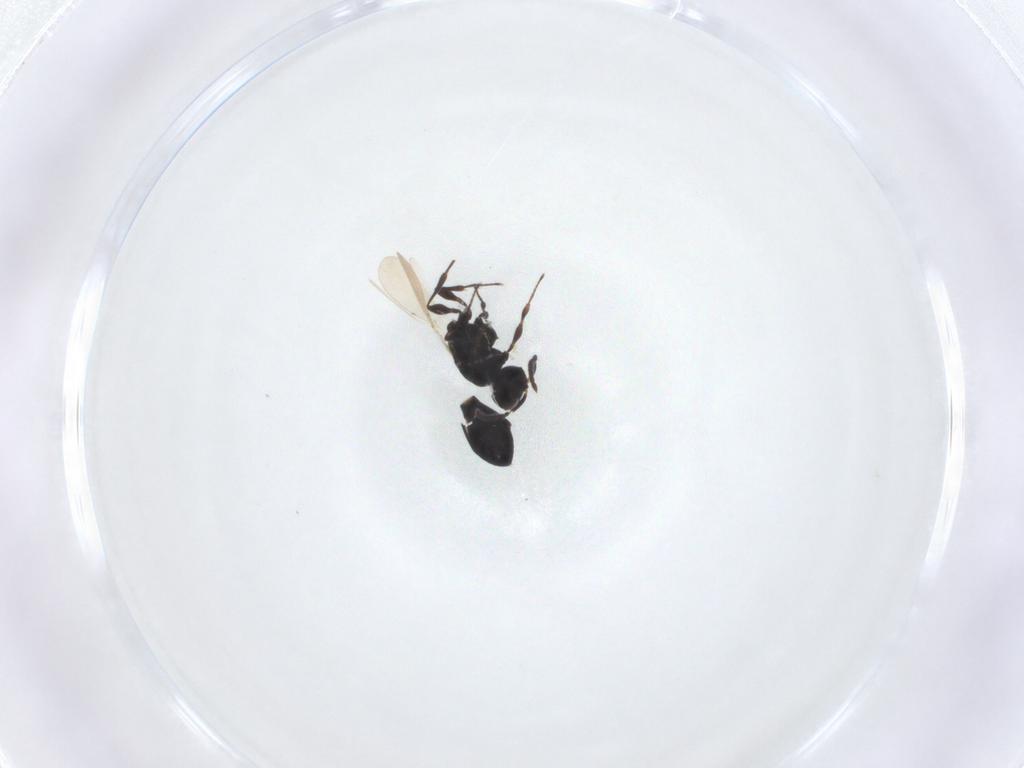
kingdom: Animalia
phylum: Arthropoda
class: Insecta
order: Hymenoptera
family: Platygastridae
